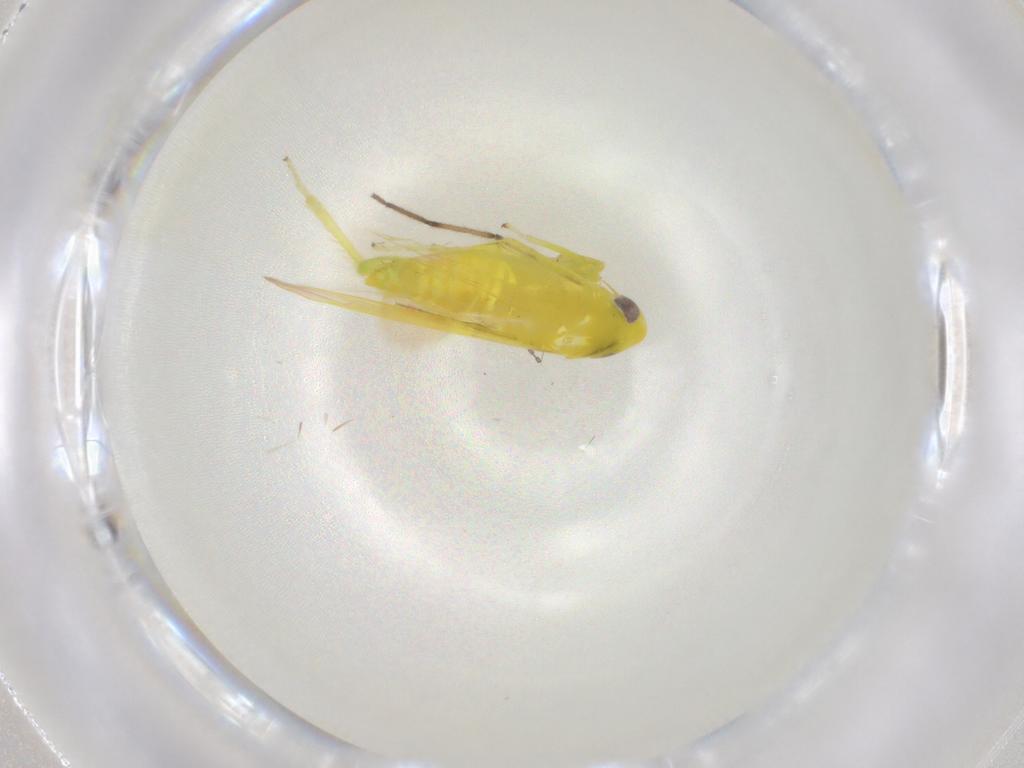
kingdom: Animalia
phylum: Arthropoda
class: Insecta
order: Hemiptera
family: Cicadellidae
